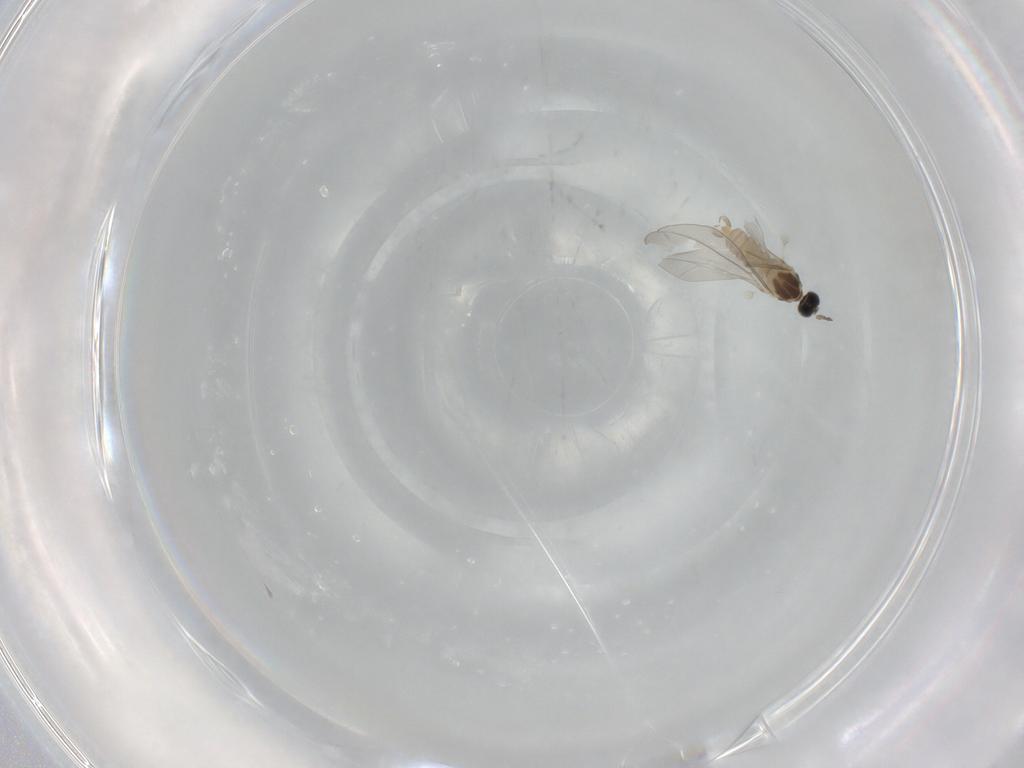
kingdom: Animalia
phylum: Arthropoda
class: Insecta
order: Diptera
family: Cecidomyiidae
